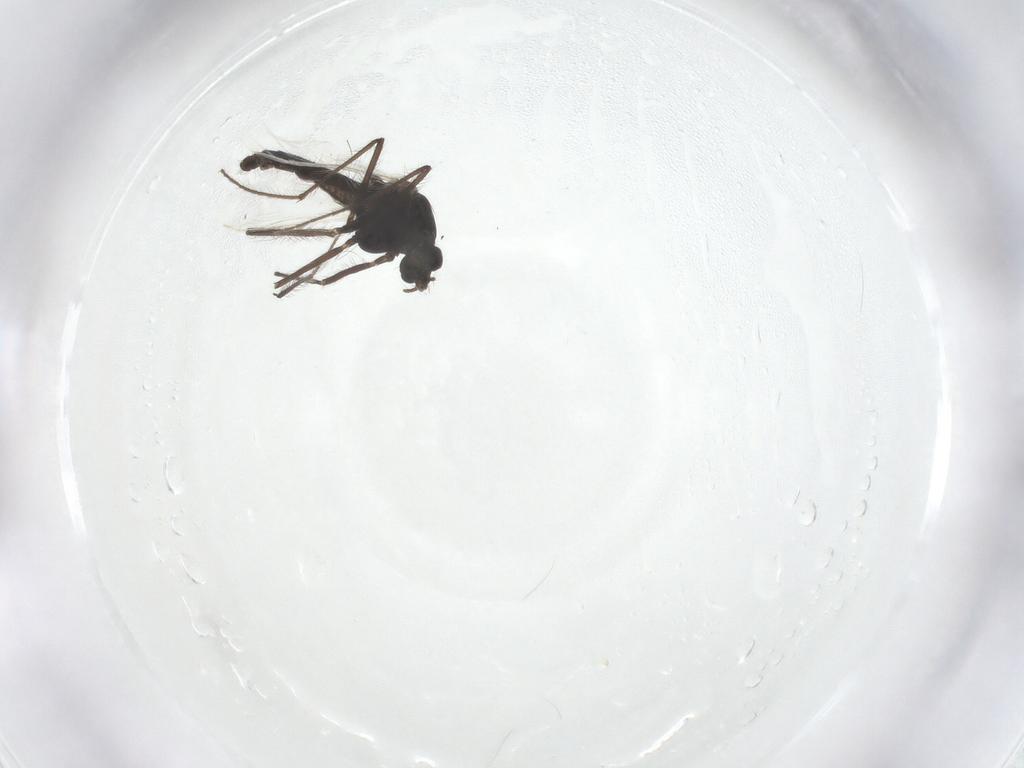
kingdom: Animalia
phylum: Arthropoda
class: Insecta
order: Diptera
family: Chironomidae
